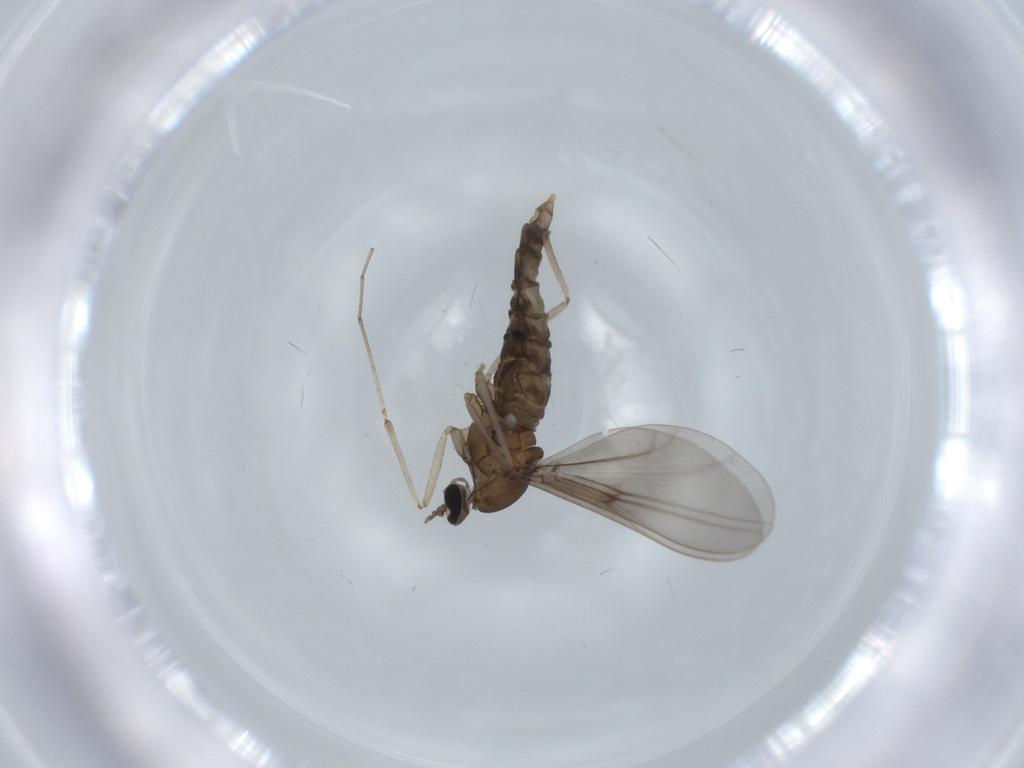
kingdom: Animalia
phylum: Arthropoda
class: Insecta
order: Diptera
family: Cecidomyiidae
